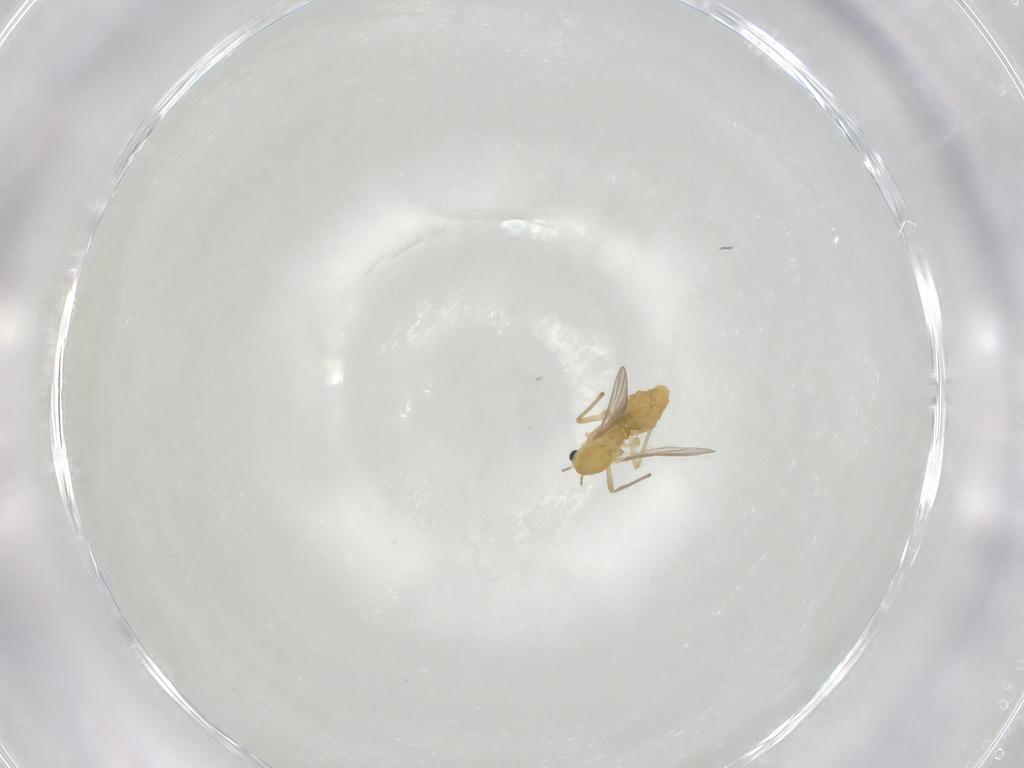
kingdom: Animalia
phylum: Arthropoda
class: Insecta
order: Diptera
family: Chironomidae
